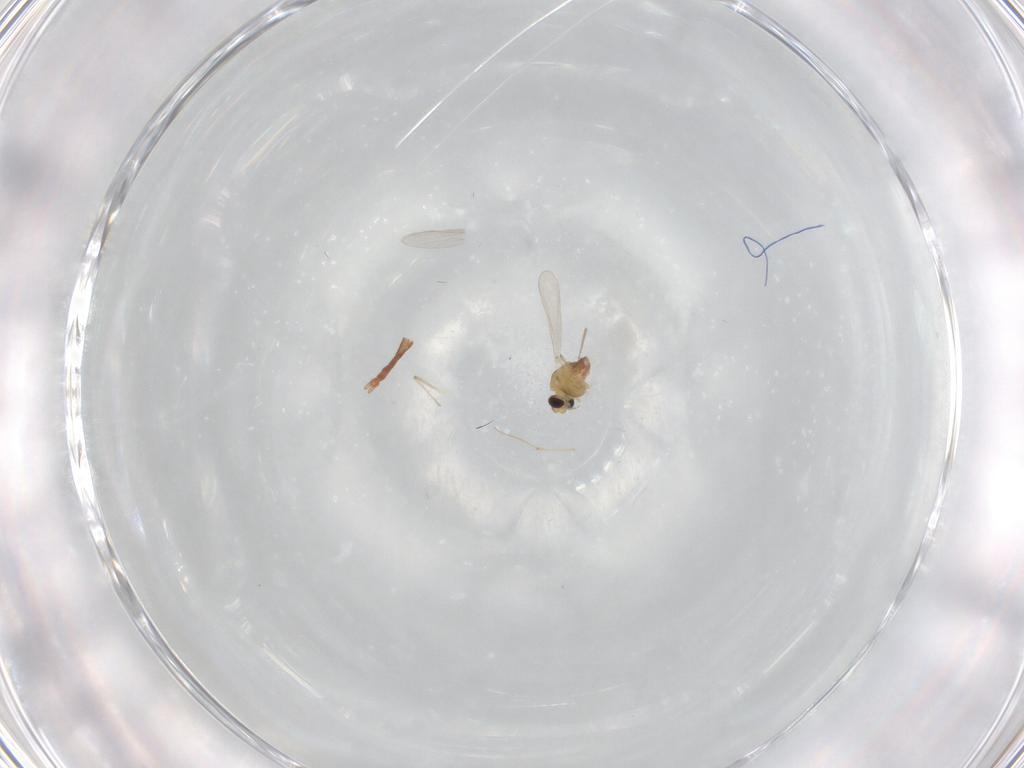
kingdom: Animalia
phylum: Arthropoda
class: Insecta
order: Diptera
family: Chironomidae
